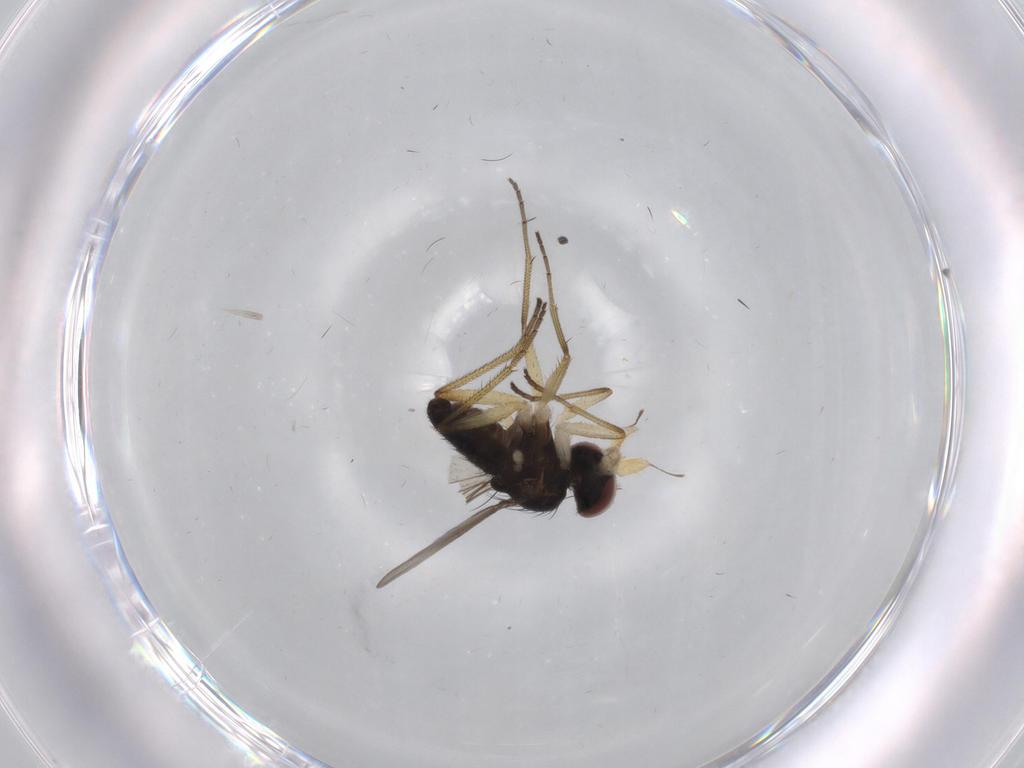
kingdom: Animalia
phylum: Arthropoda
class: Insecta
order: Diptera
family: Dolichopodidae
